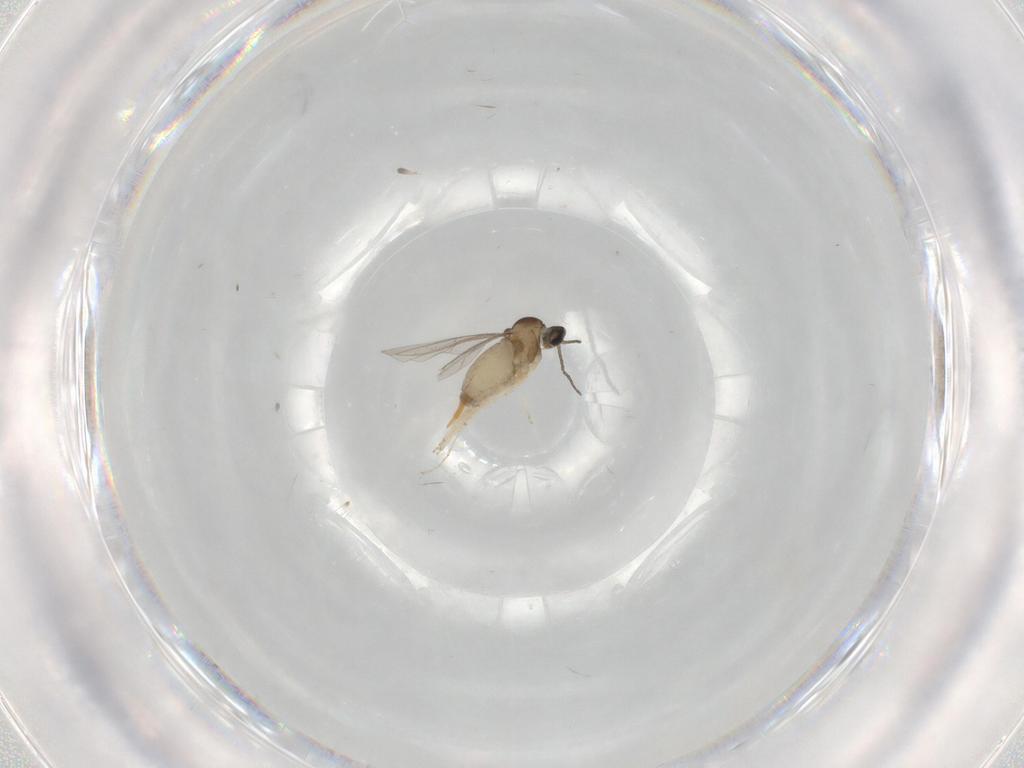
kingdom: Animalia
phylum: Arthropoda
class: Insecta
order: Diptera
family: Cecidomyiidae
